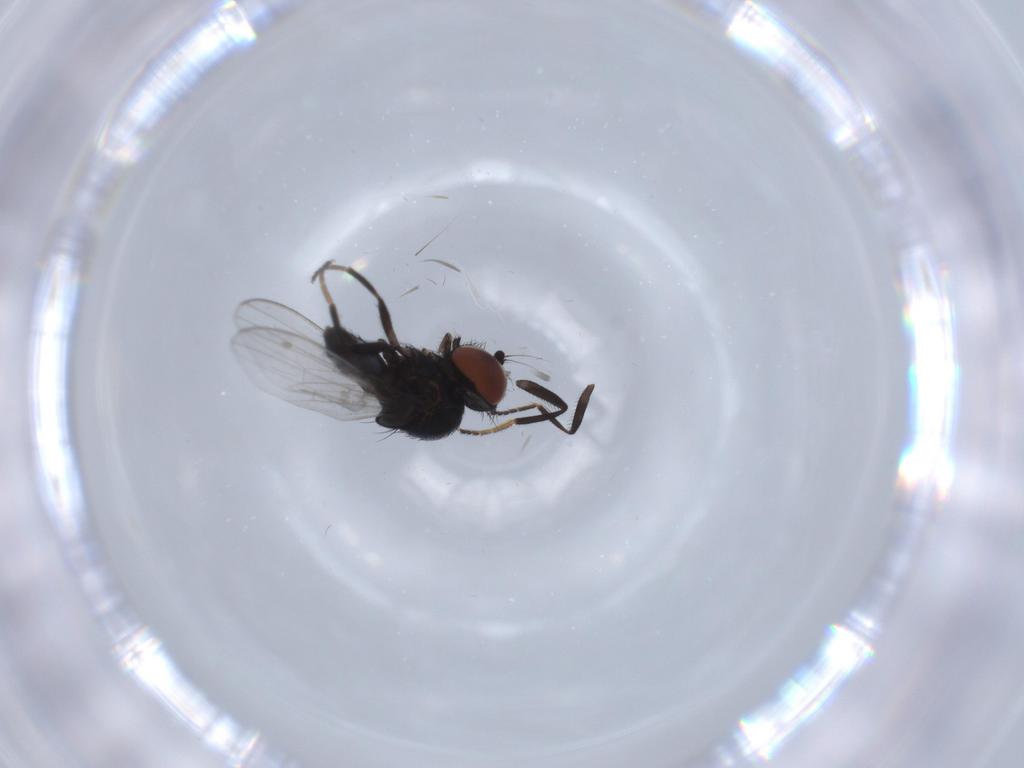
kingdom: Animalia
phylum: Arthropoda
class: Insecta
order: Diptera
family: Milichiidae
